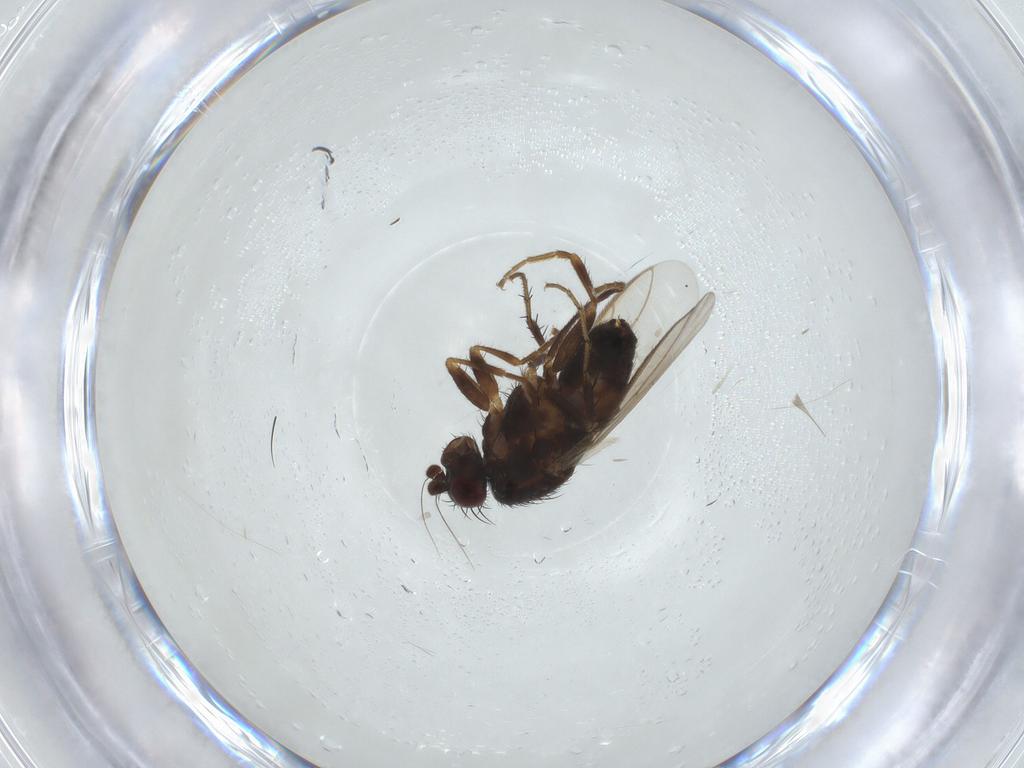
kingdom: Animalia
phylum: Arthropoda
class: Insecta
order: Diptera
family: Sphaeroceridae
